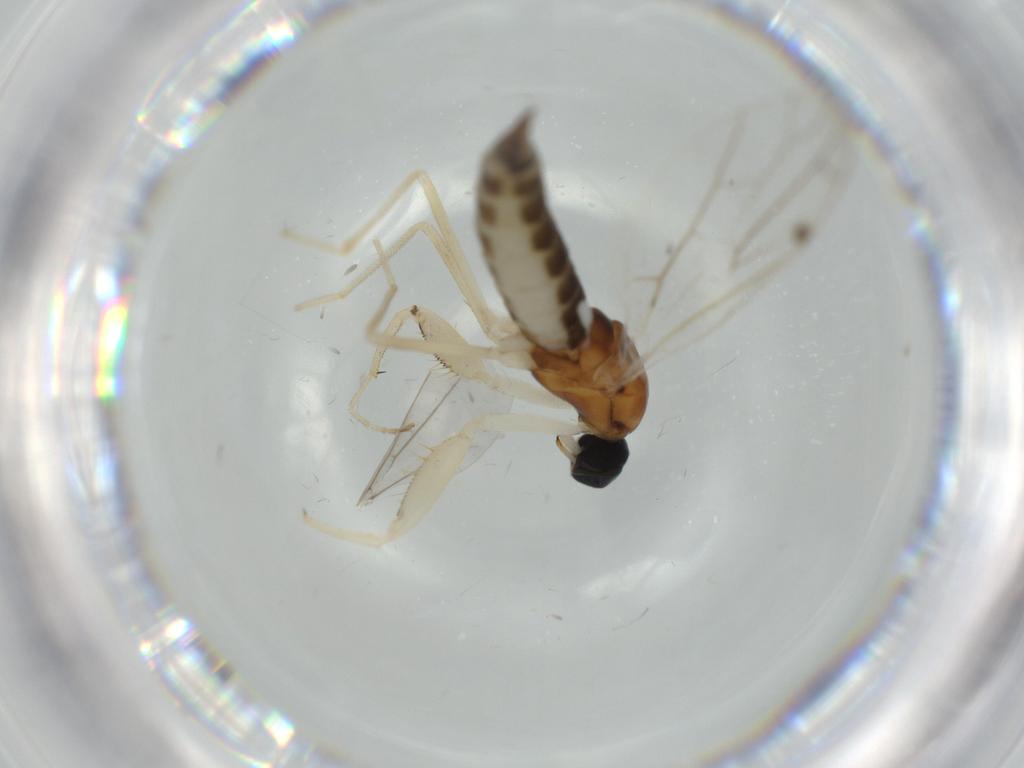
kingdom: Animalia
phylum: Arthropoda
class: Insecta
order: Diptera
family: Empididae
